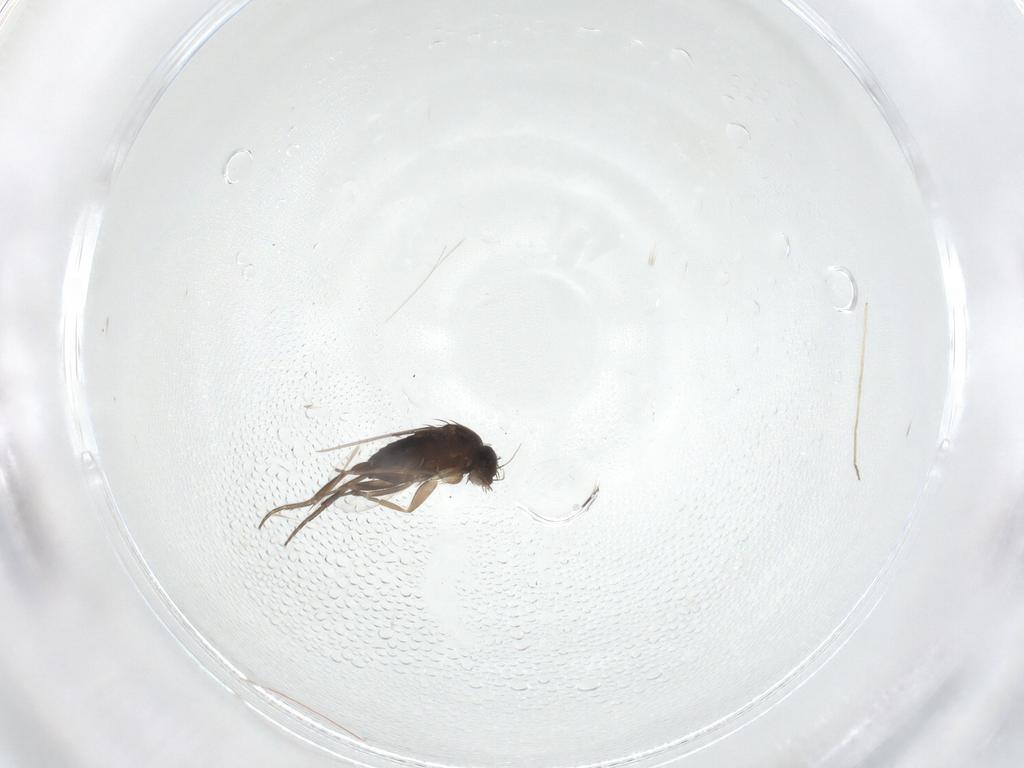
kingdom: Animalia
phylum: Arthropoda
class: Insecta
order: Diptera
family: Phoridae
